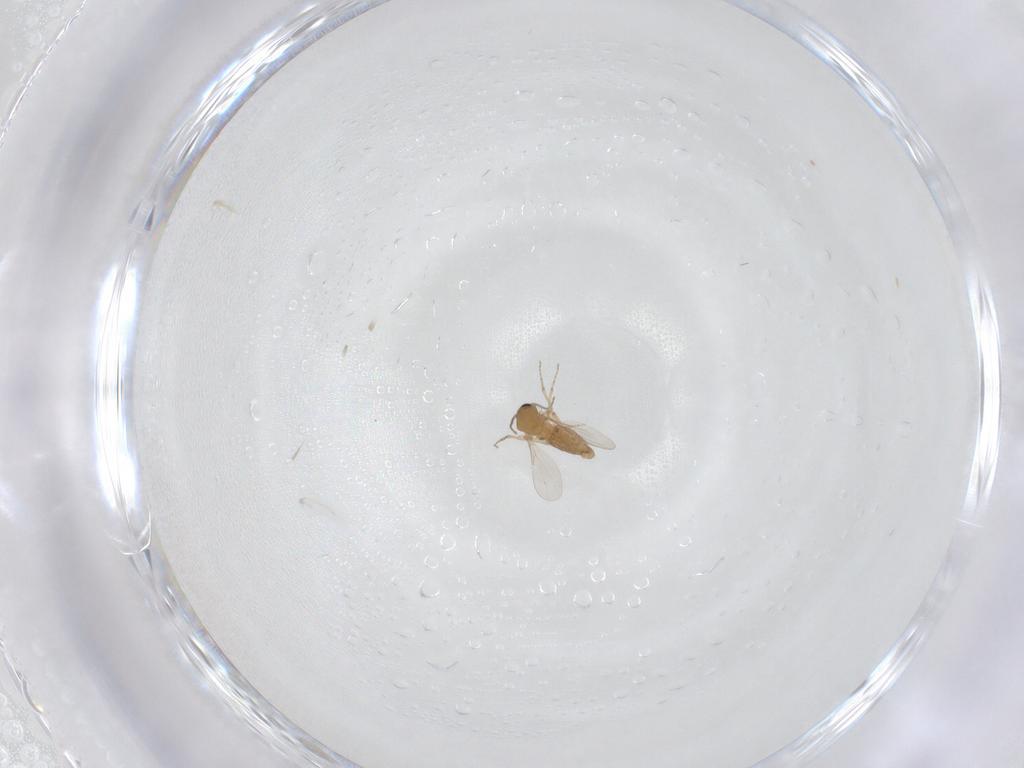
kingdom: Animalia
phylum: Arthropoda
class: Insecta
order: Diptera
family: Ceratopogonidae
